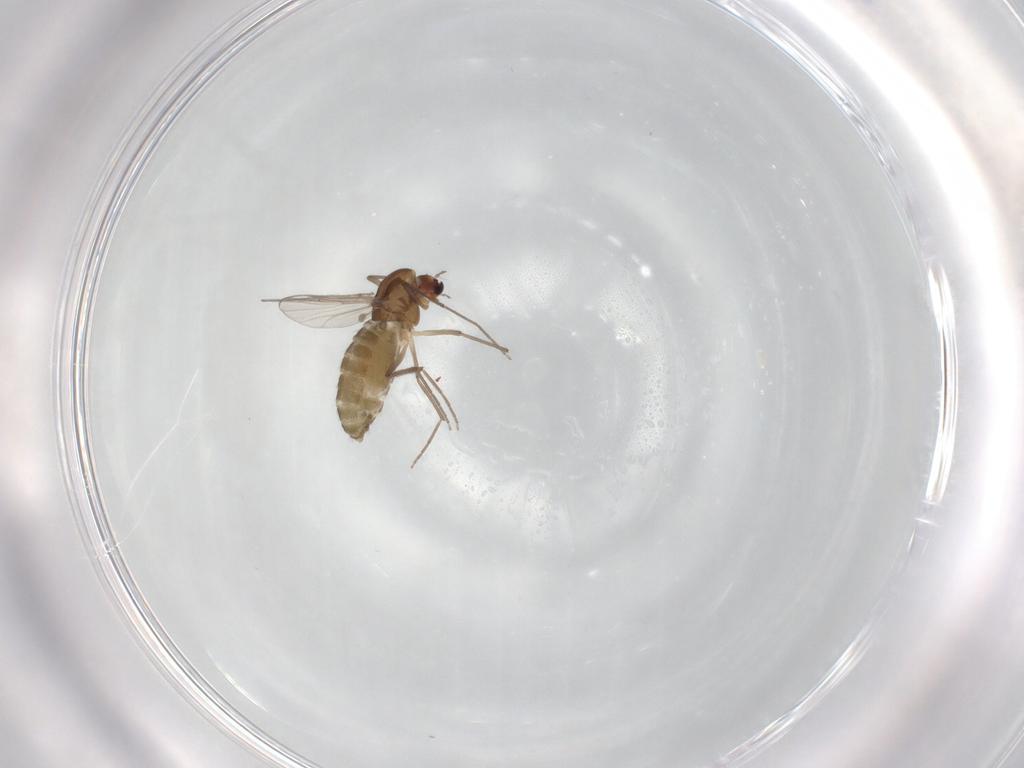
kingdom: Animalia
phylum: Arthropoda
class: Insecta
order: Diptera
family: Chironomidae
